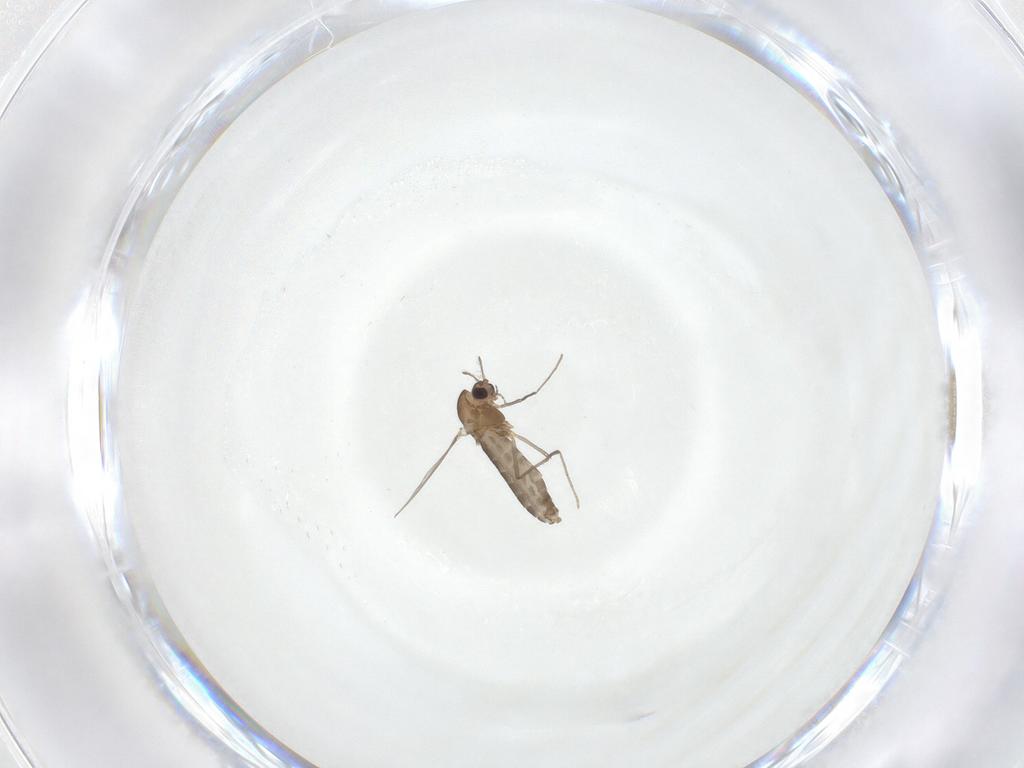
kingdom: Animalia
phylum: Arthropoda
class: Insecta
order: Diptera
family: Chironomidae
